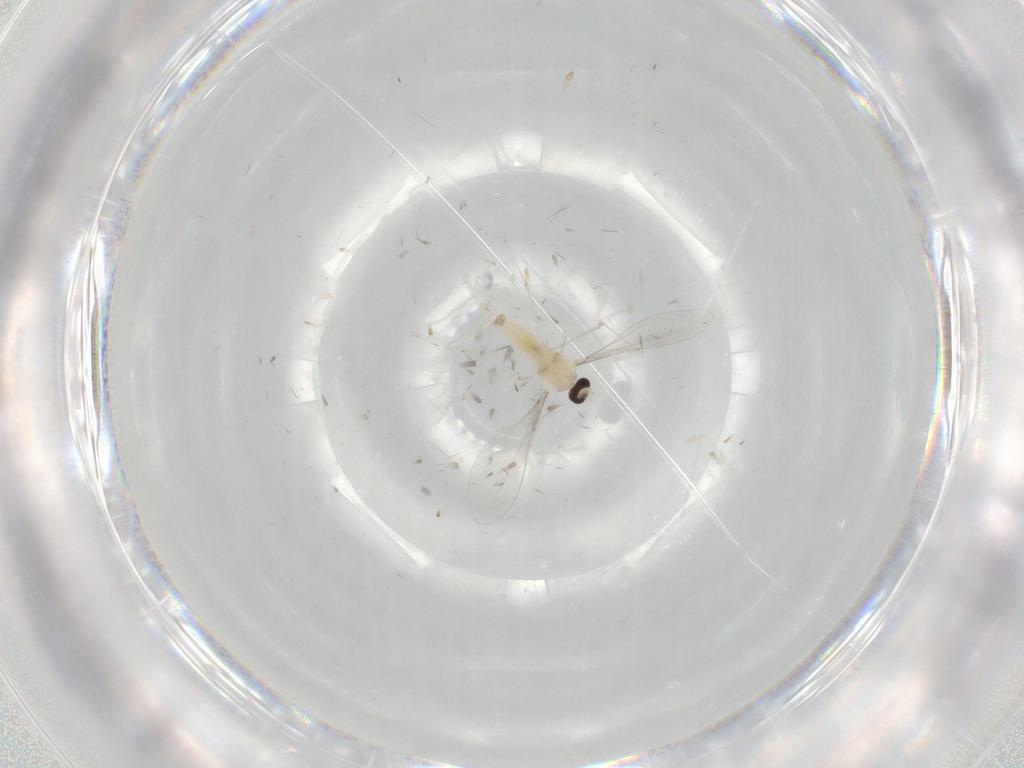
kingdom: Animalia
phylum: Arthropoda
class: Insecta
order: Diptera
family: Cecidomyiidae
